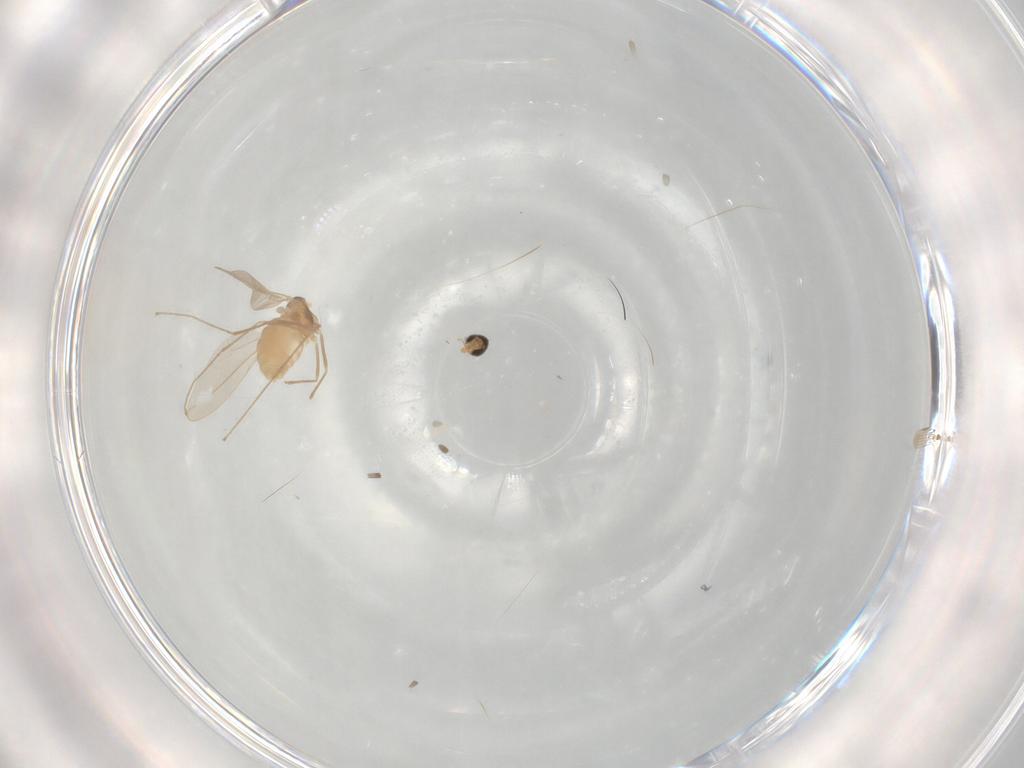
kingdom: Animalia
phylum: Arthropoda
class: Insecta
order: Diptera
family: Cecidomyiidae
